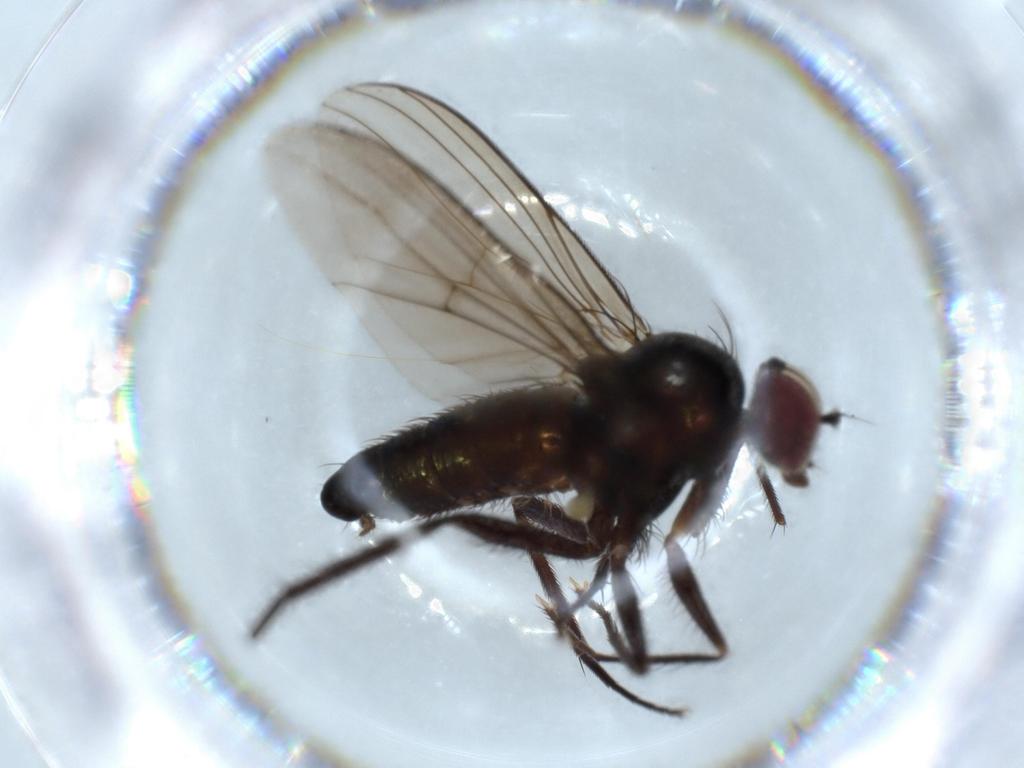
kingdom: Animalia
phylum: Arthropoda
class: Insecta
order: Diptera
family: Dolichopodidae
